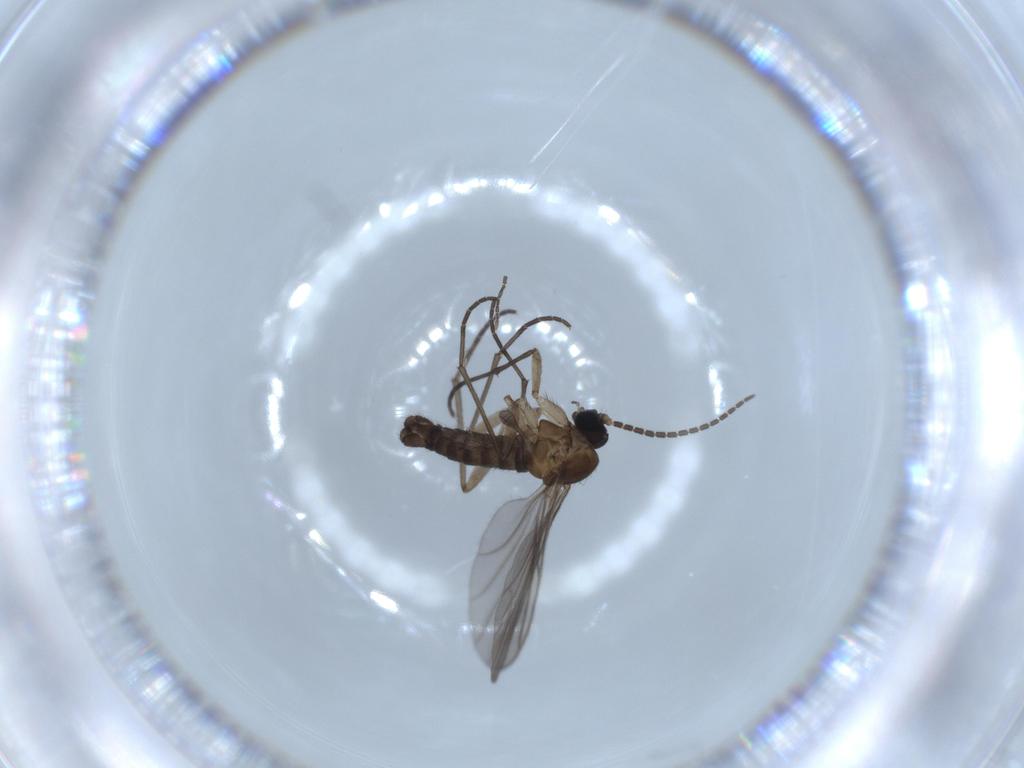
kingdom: Animalia
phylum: Arthropoda
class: Insecta
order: Diptera
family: Sciaridae
